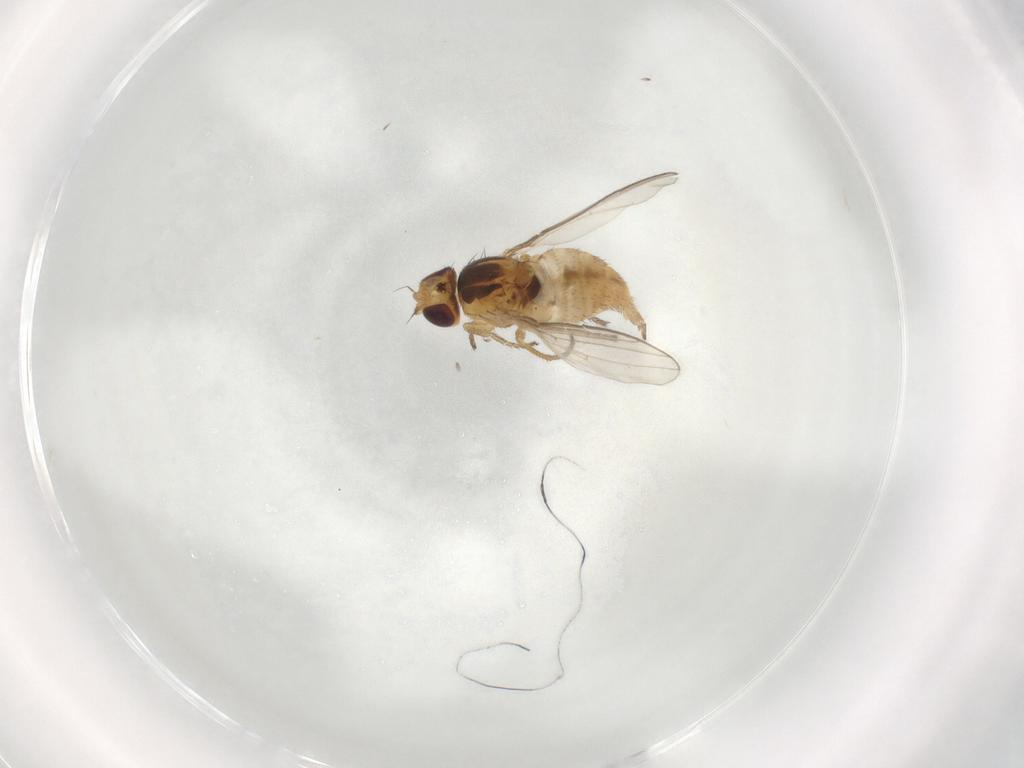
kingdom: Animalia
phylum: Arthropoda
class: Insecta
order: Diptera
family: Chloropidae
